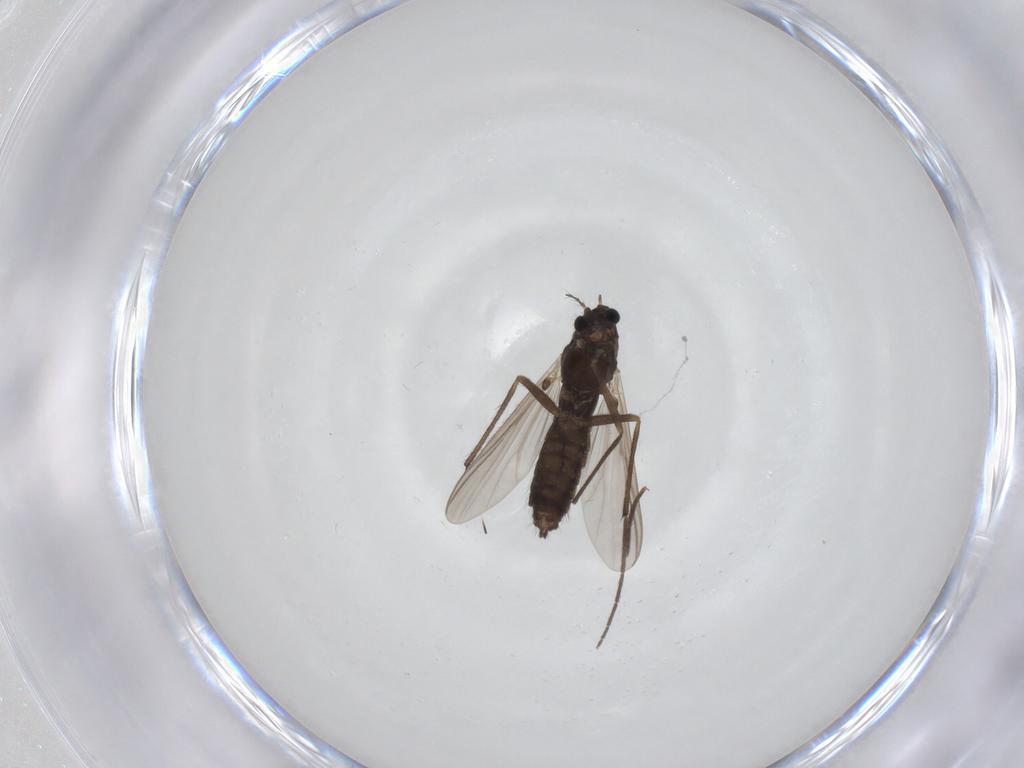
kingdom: Animalia
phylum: Arthropoda
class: Insecta
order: Diptera
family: Chironomidae
